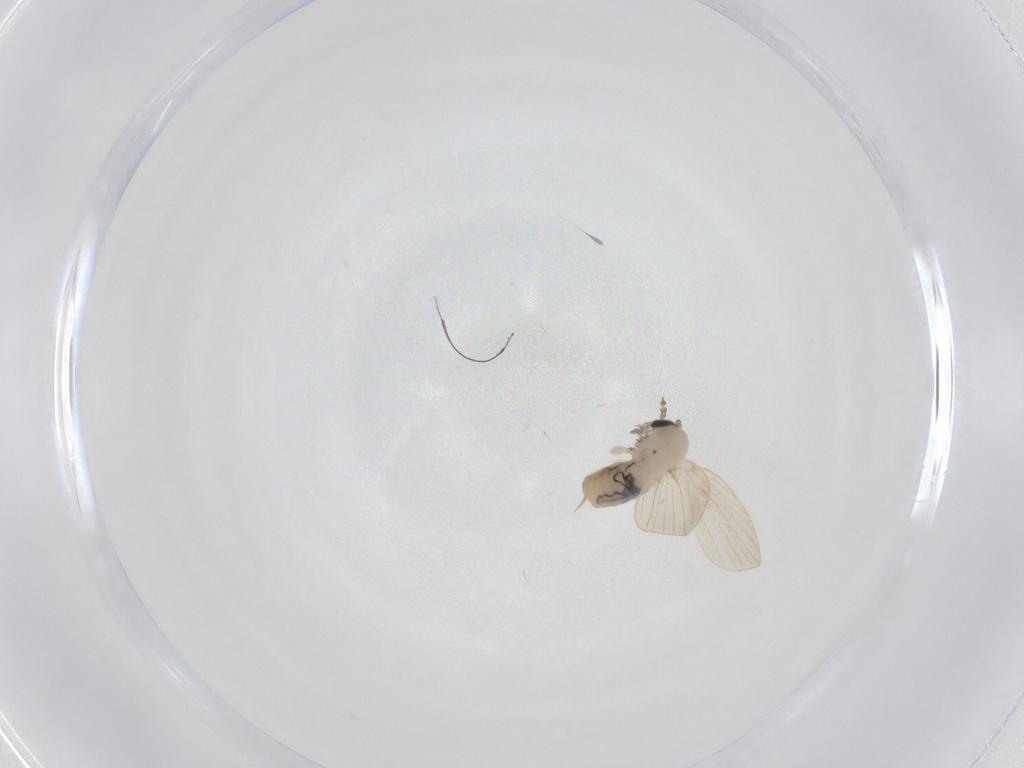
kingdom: Animalia
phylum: Arthropoda
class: Insecta
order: Diptera
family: Psychodidae
